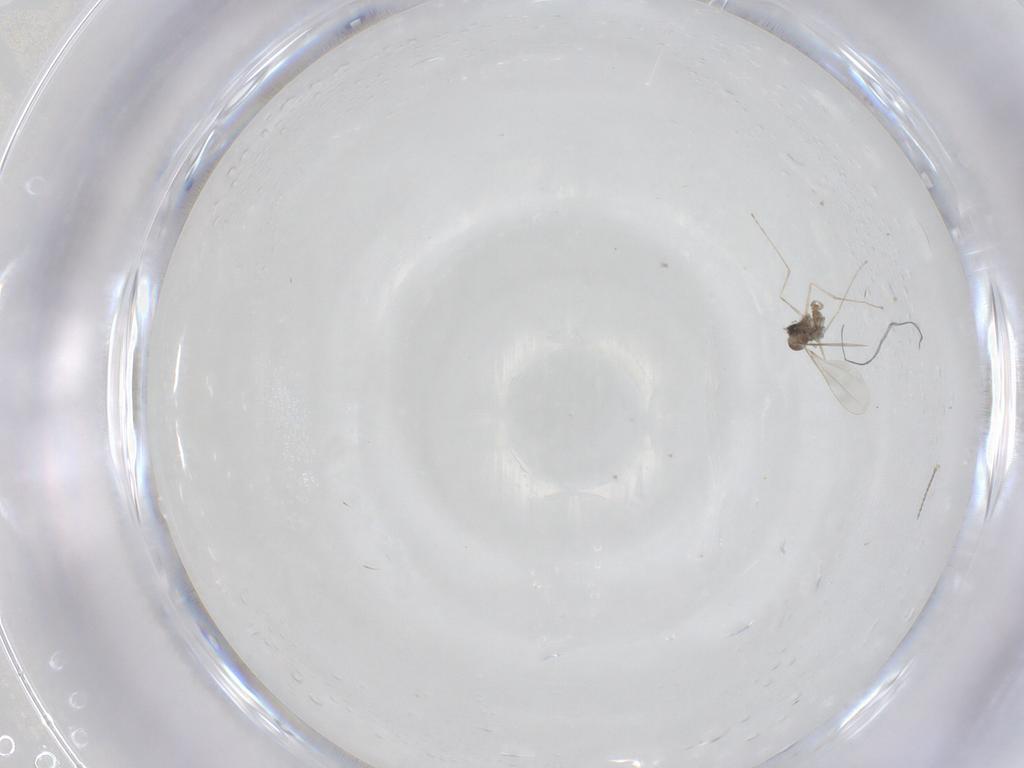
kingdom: Animalia
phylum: Arthropoda
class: Insecta
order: Diptera
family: Cecidomyiidae
